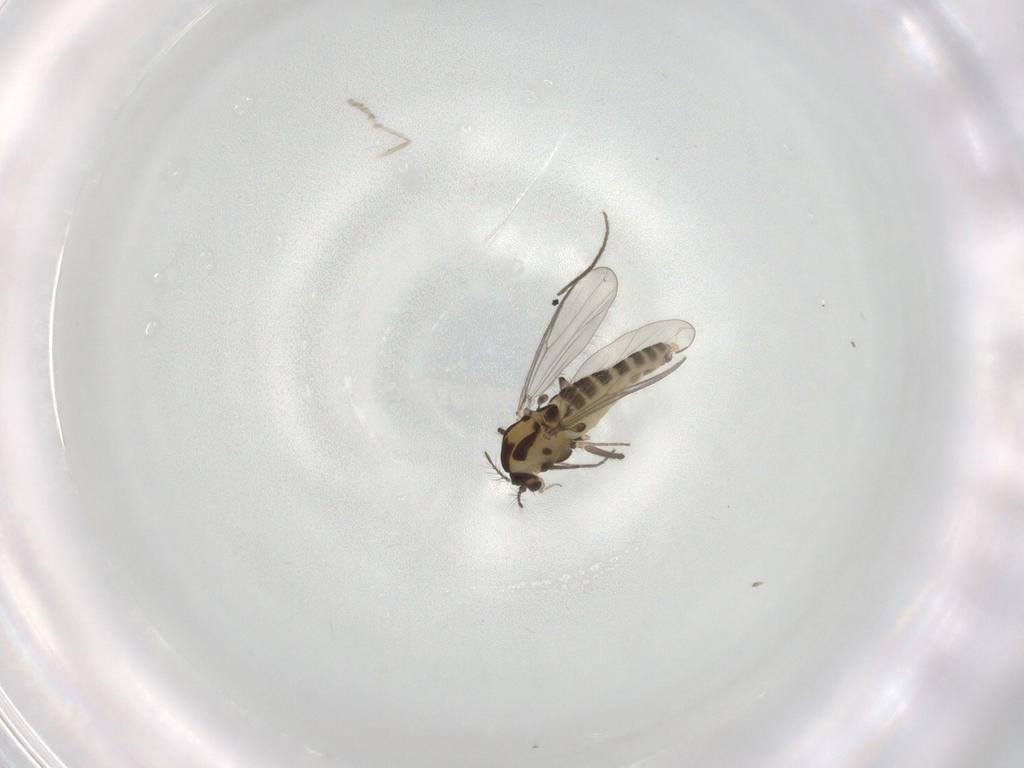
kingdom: Animalia
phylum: Arthropoda
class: Insecta
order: Diptera
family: Chironomidae
